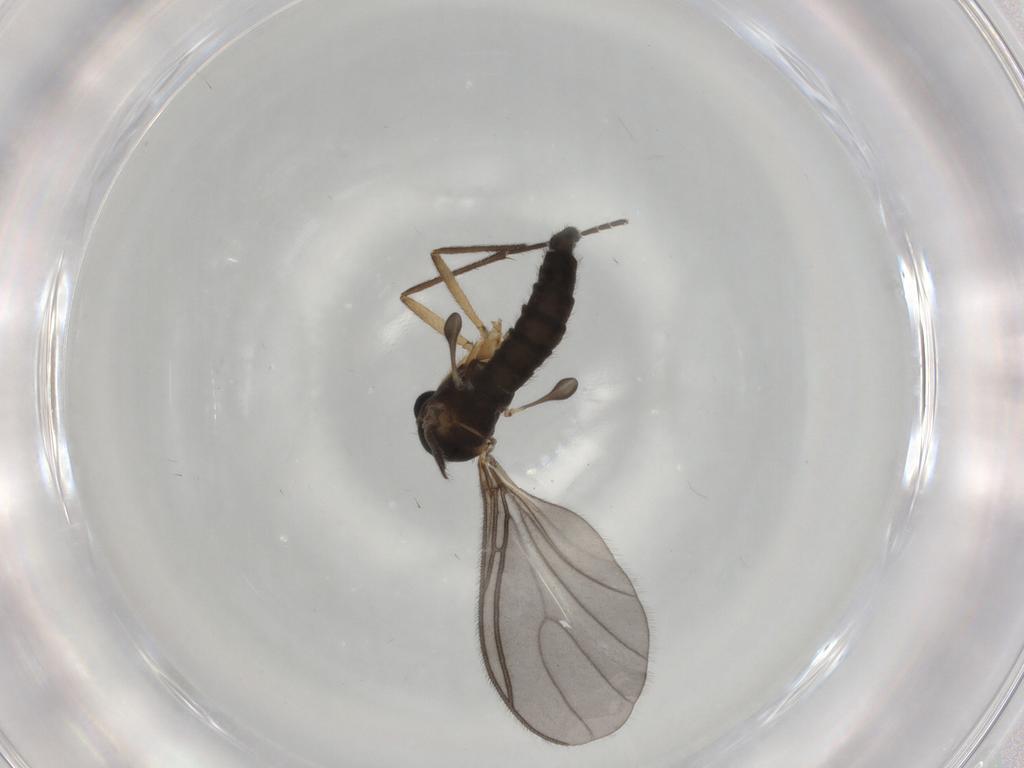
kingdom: Animalia
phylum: Arthropoda
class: Insecta
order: Diptera
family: Sciaridae
